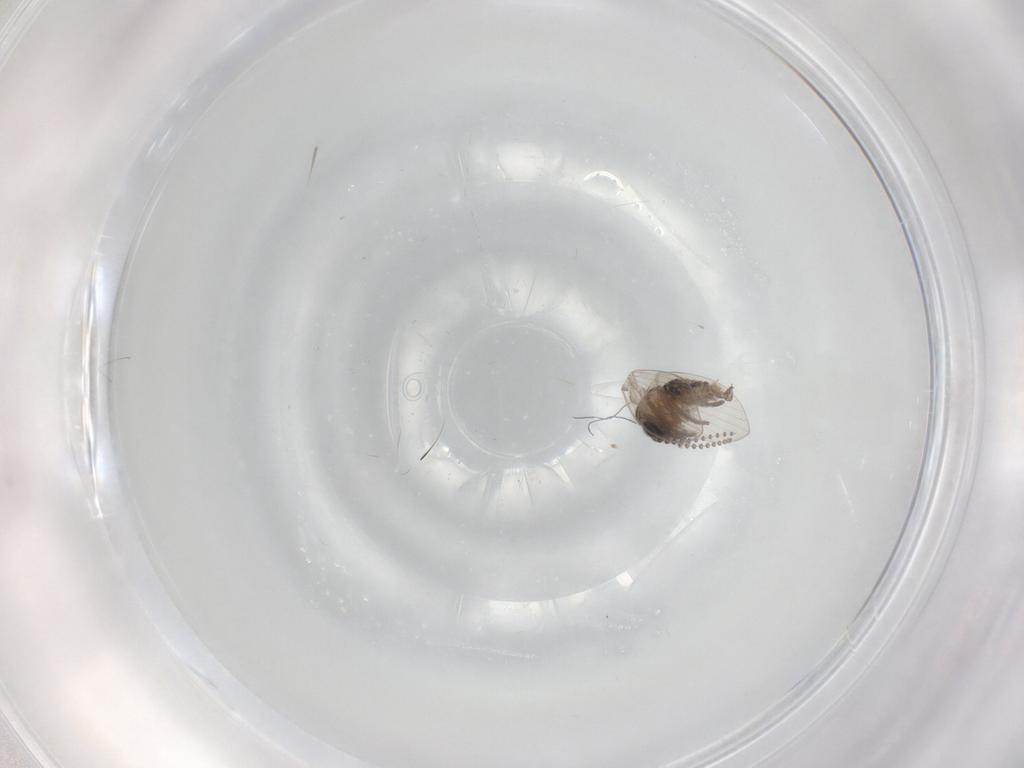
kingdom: Animalia
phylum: Arthropoda
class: Insecta
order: Diptera
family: Psychodidae
